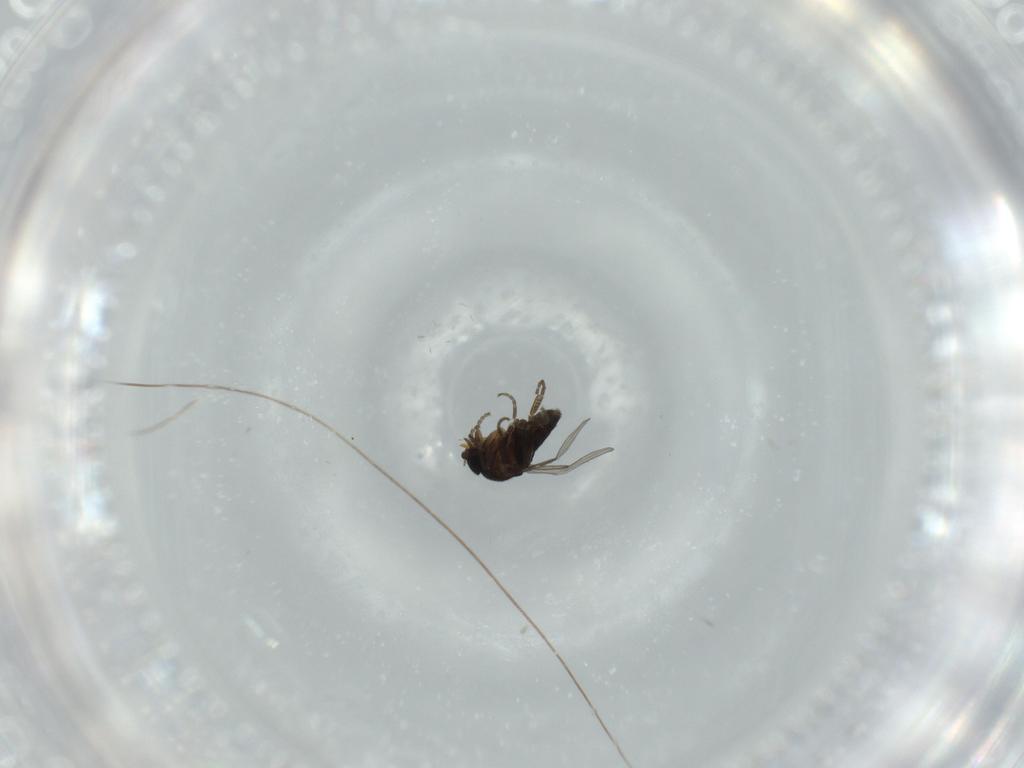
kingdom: Animalia
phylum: Arthropoda
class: Insecta
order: Diptera
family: Phoridae
